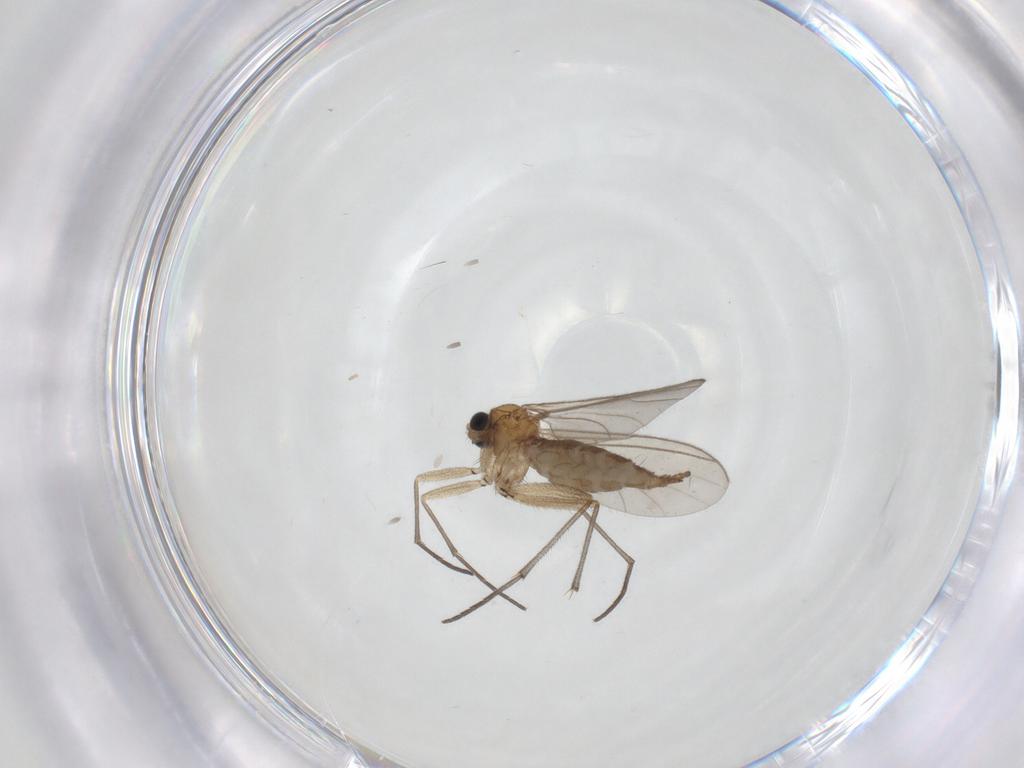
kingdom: Animalia
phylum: Arthropoda
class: Insecta
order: Diptera
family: Sciaridae
